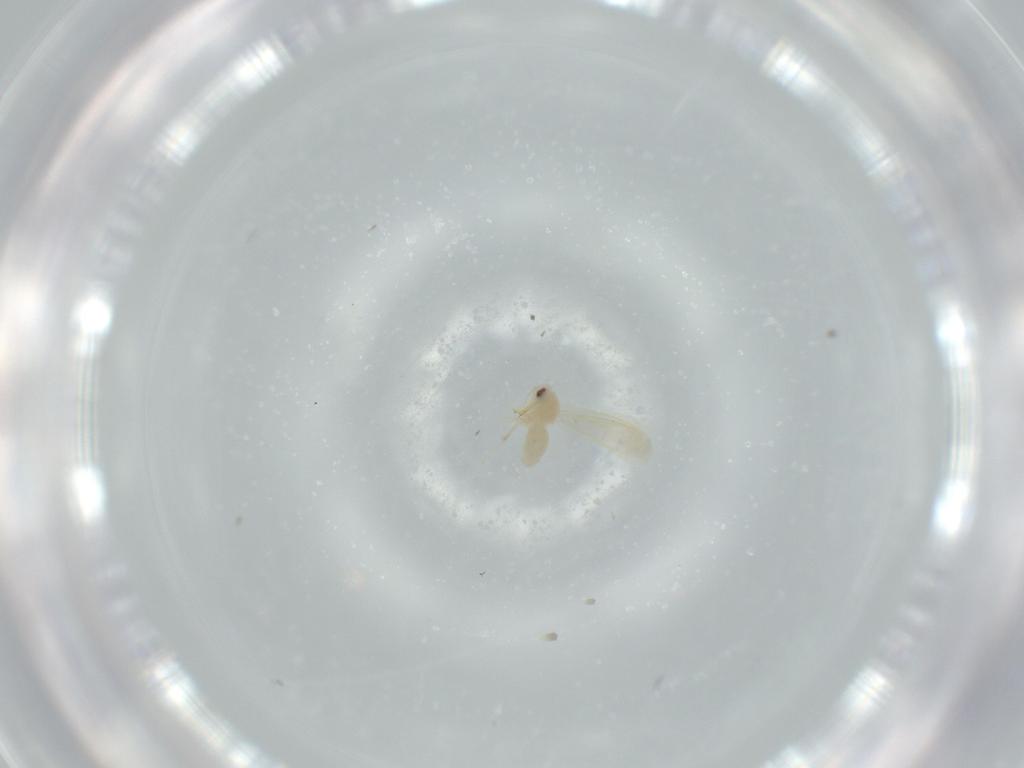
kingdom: Animalia
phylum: Arthropoda
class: Insecta
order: Hemiptera
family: Aleyrodidae
